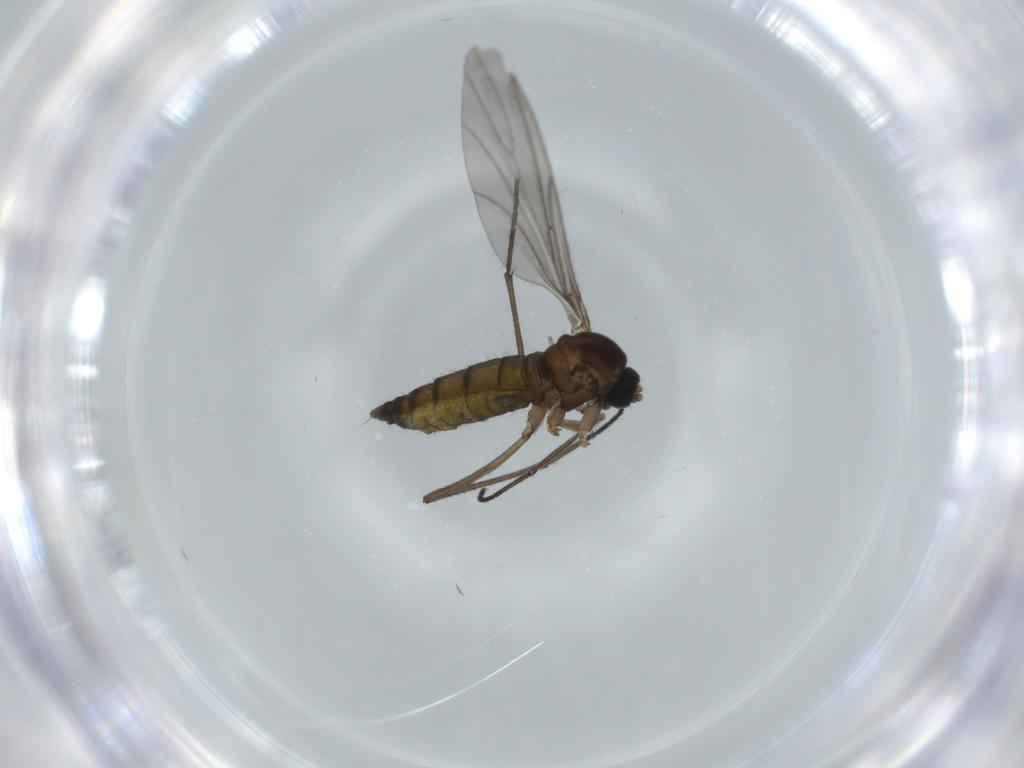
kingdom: Animalia
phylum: Arthropoda
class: Insecta
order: Diptera
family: Sciaridae
